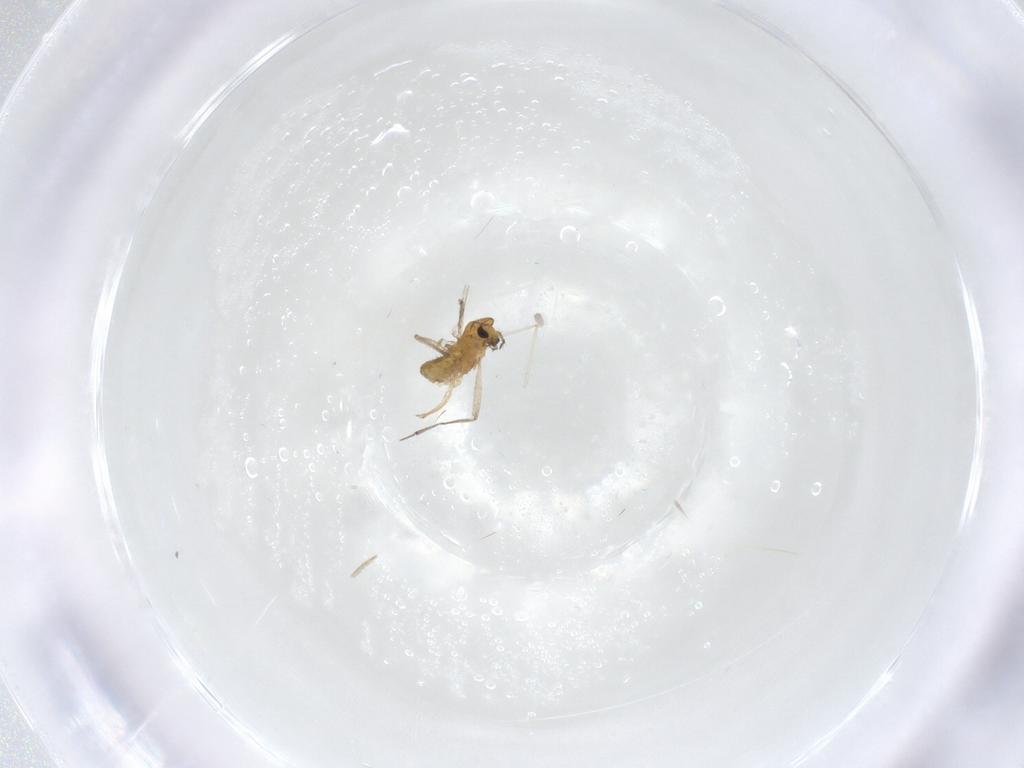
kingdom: Animalia
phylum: Arthropoda
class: Insecta
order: Diptera
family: Chironomidae
